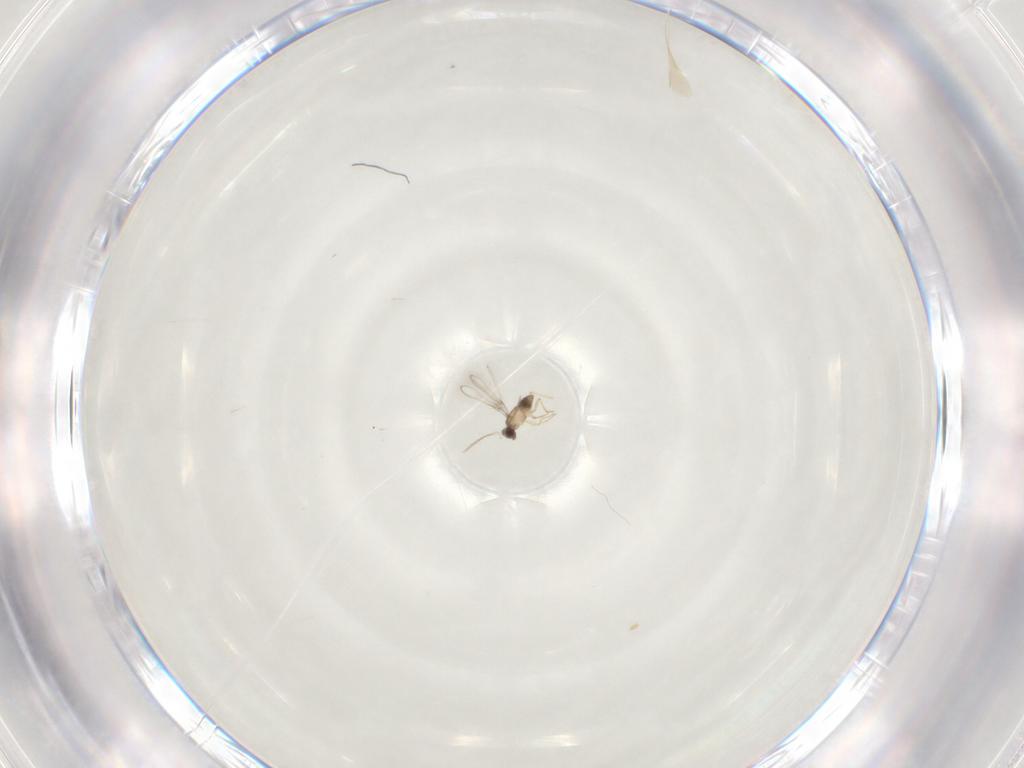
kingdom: Animalia
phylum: Arthropoda
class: Insecta
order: Hymenoptera
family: Mymaridae
